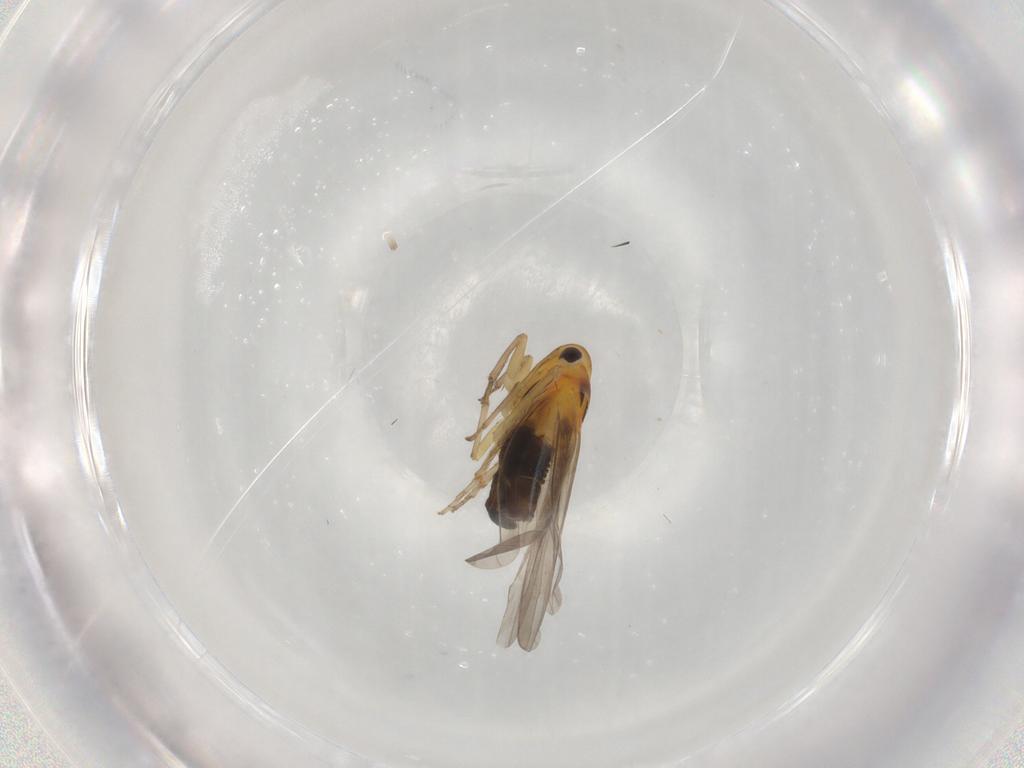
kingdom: Animalia
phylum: Arthropoda
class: Insecta
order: Hemiptera
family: Cicadellidae
